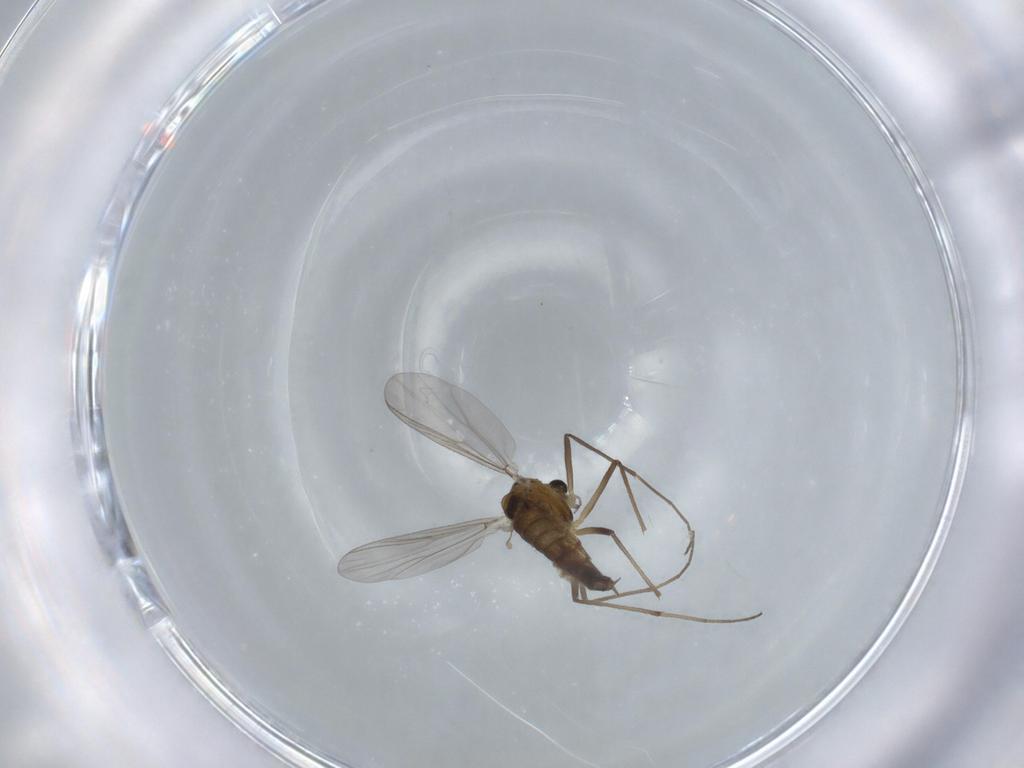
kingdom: Animalia
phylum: Arthropoda
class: Insecta
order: Diptera
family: Chironomidae
